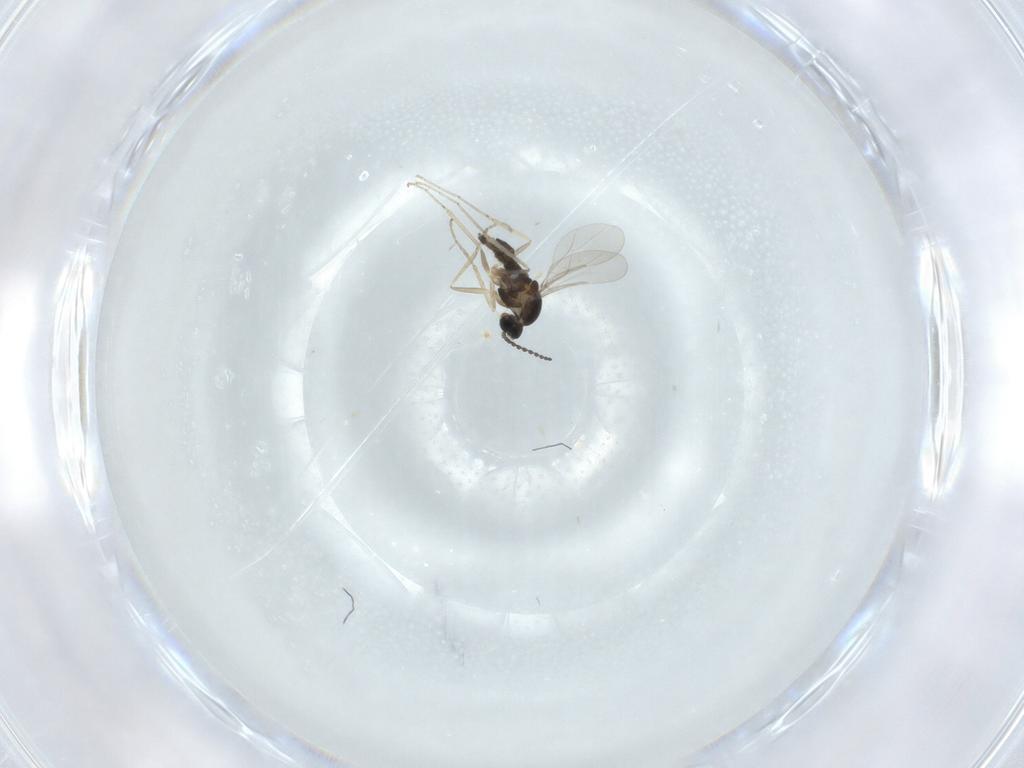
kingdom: Animalia
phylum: Arthropoda
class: Insecta
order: Diptera
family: Cecidomyiidae
